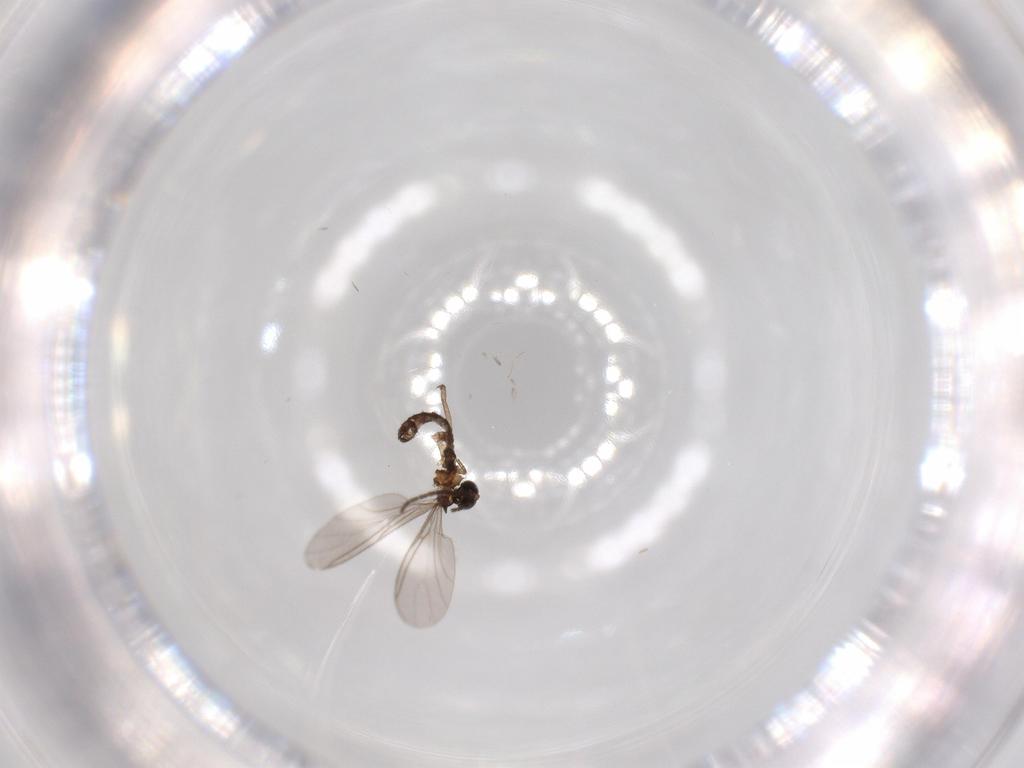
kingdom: Animalia
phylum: Arthropoda
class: Insecta
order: Diptera
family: Sciaridae
